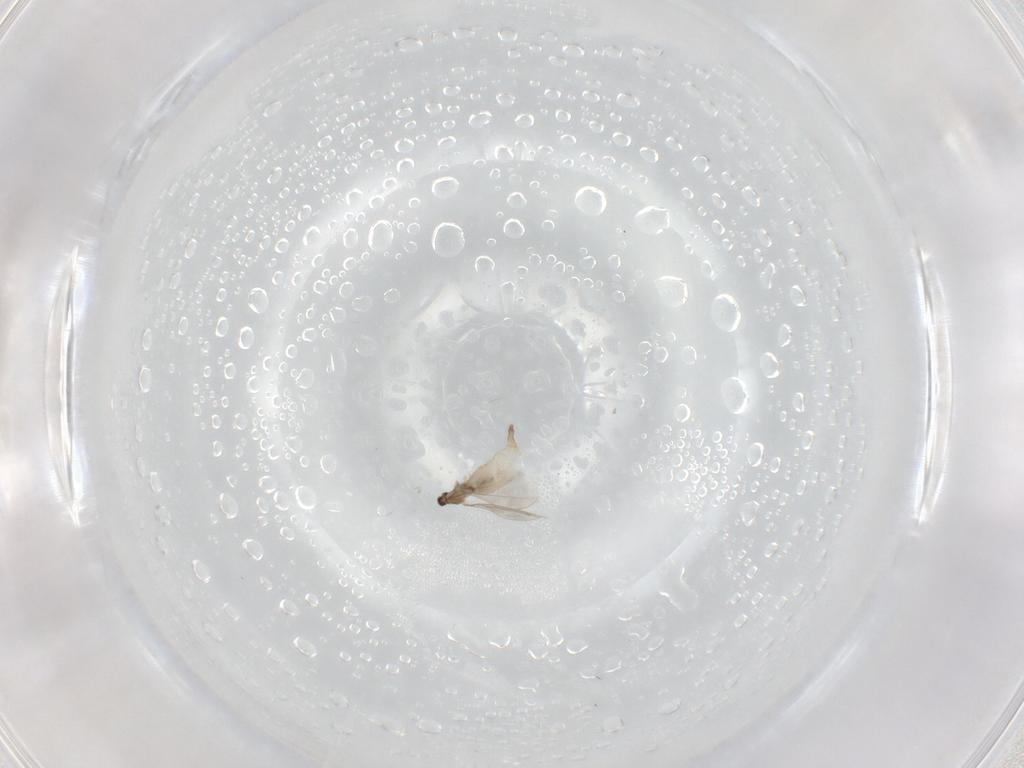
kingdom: Animalia
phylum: Arthropoda
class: Insecta
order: Diptera
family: Cecidomyiidae
